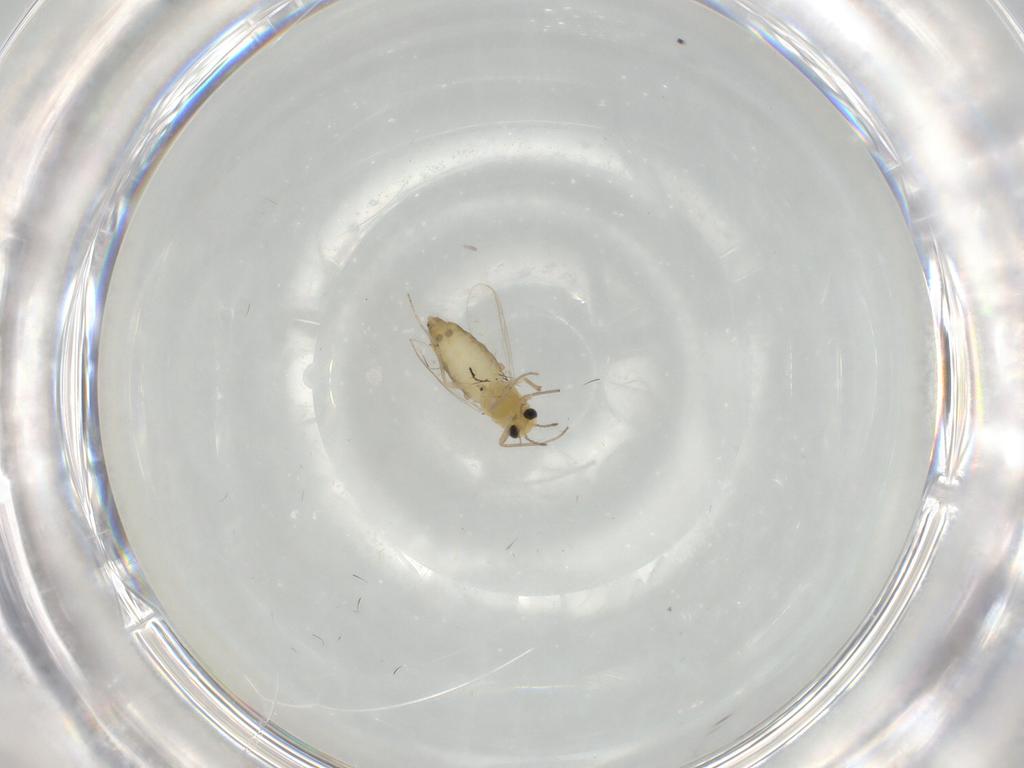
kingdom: Animalia
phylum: Arthropoda
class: Insecta
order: Diptera
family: Chironomidae
